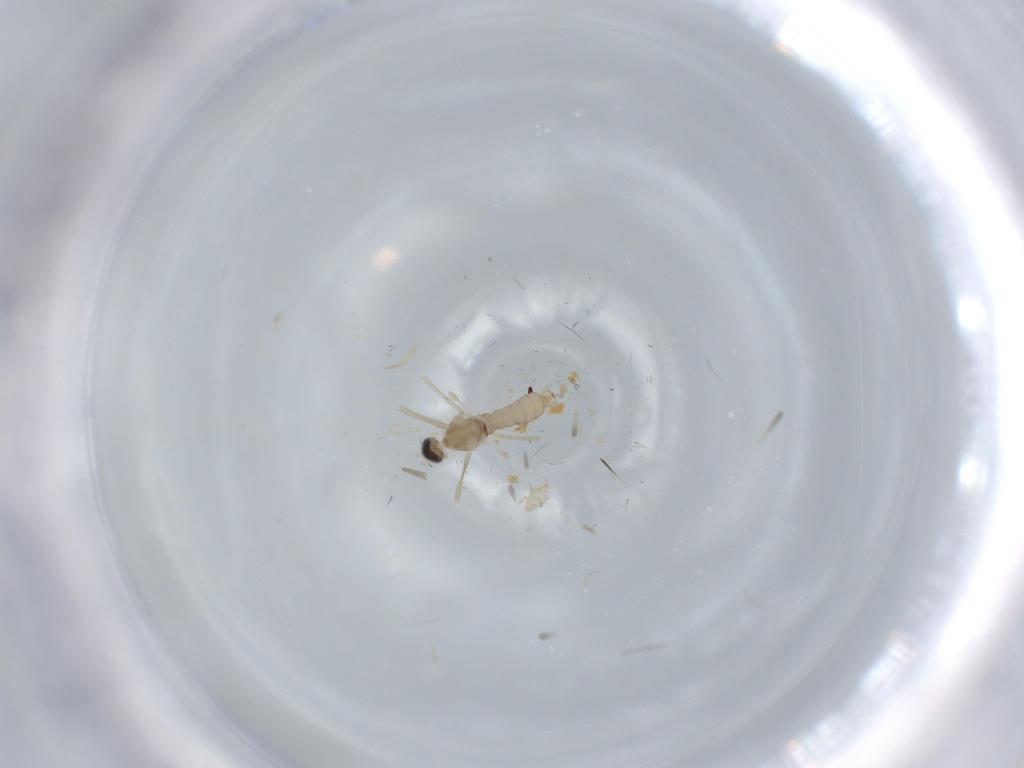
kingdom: Animalia
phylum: Arthropoda
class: Insecta
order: Diptera
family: Cecidomyiidae
